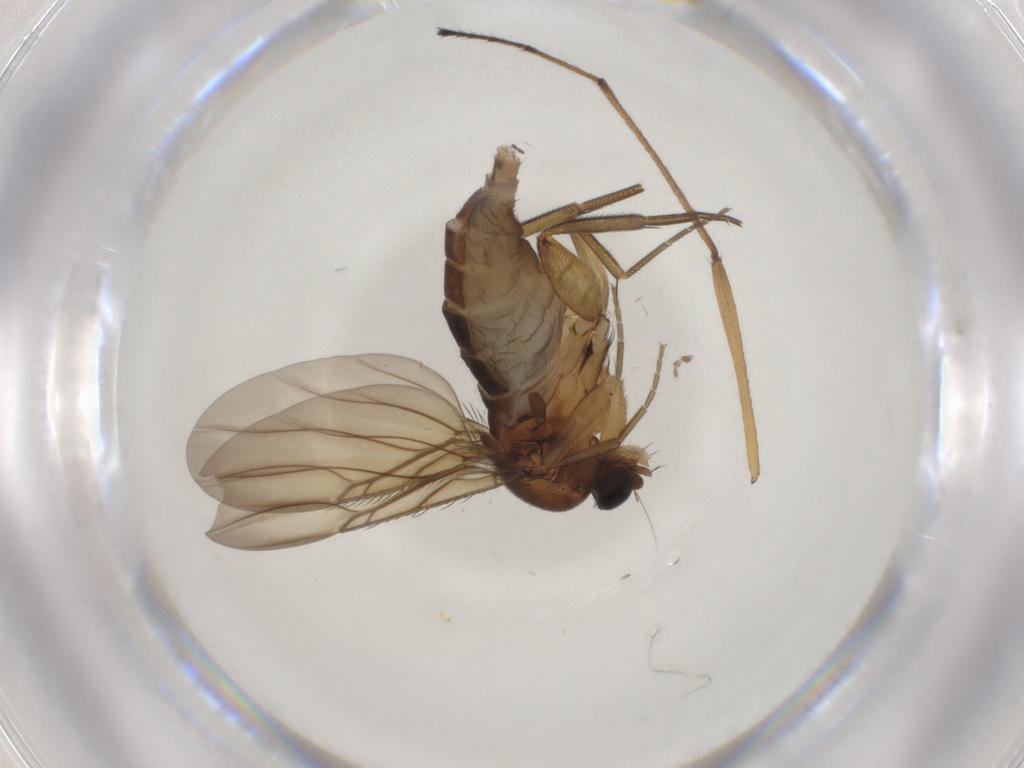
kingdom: Animalia
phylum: Arthropoda
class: Insecta
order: Diptera
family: Phoridae
